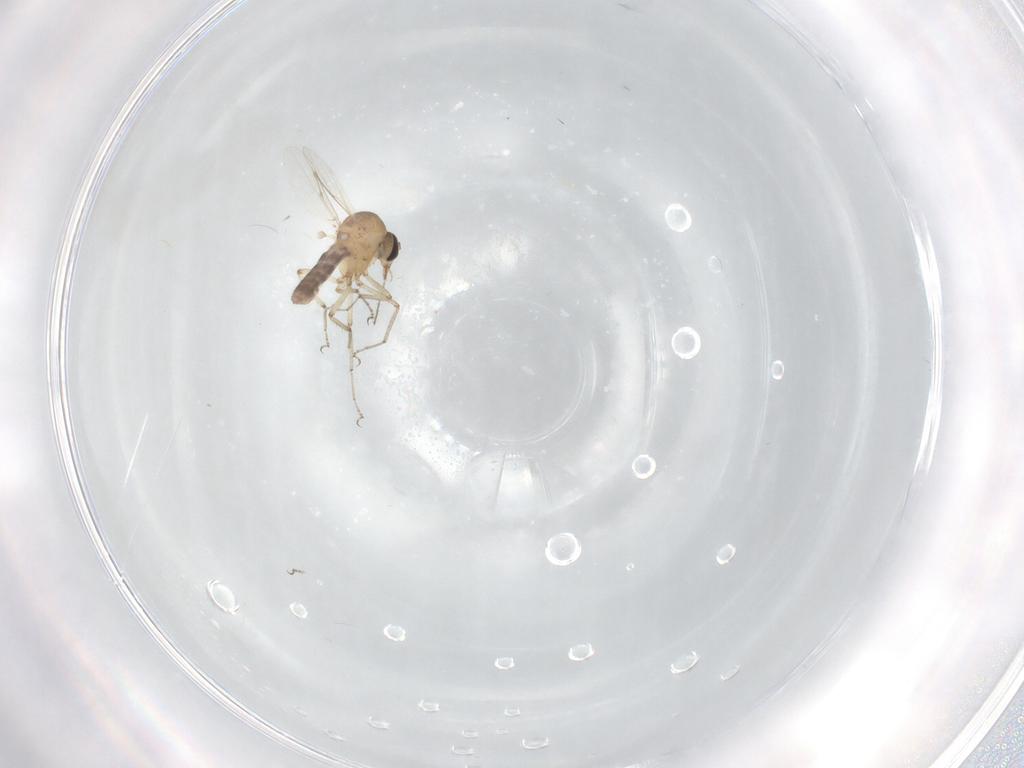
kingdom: Animalia
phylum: Arthropoda
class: Insecta
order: Diptera
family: Ceratopogonidae
